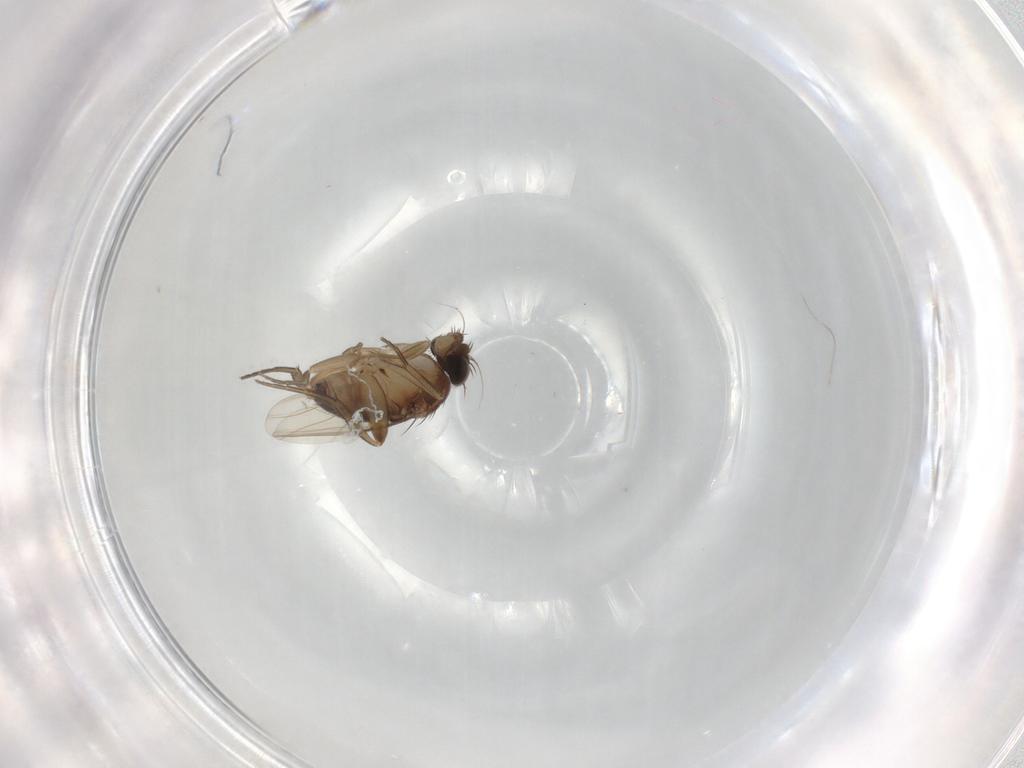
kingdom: Animalia
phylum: Arthropoda
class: Insecta
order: Diptera
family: Phoridae
